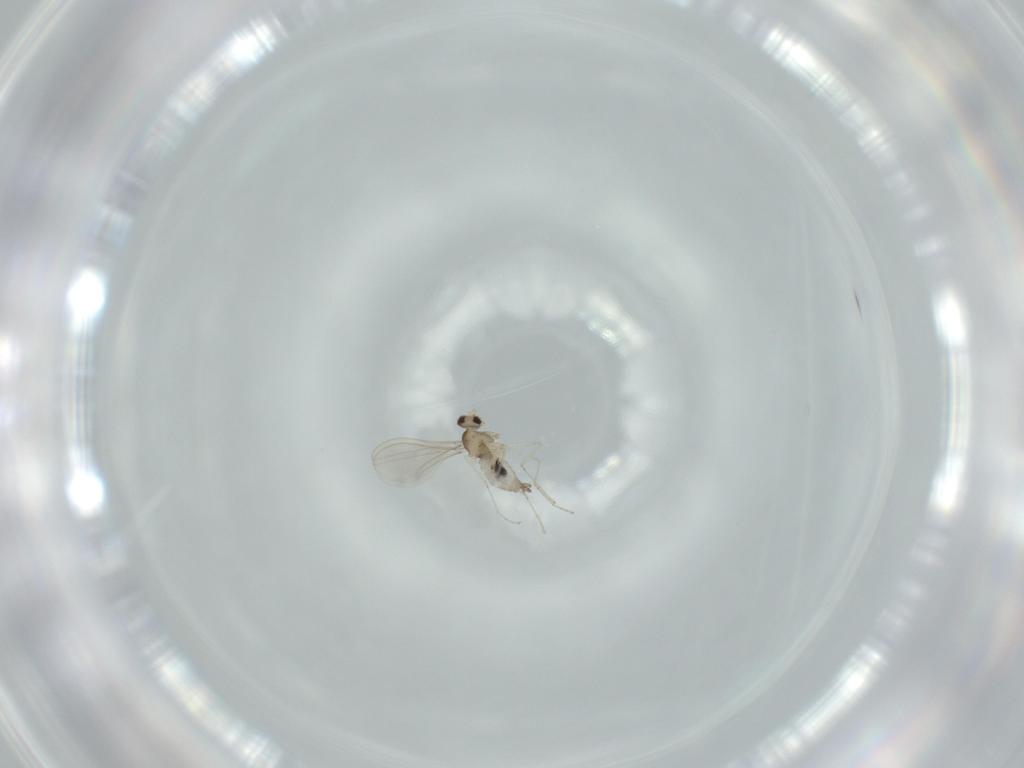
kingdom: Animalia
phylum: Arthropoda
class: Insecta
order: Diptera
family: Cecidomyiidae
